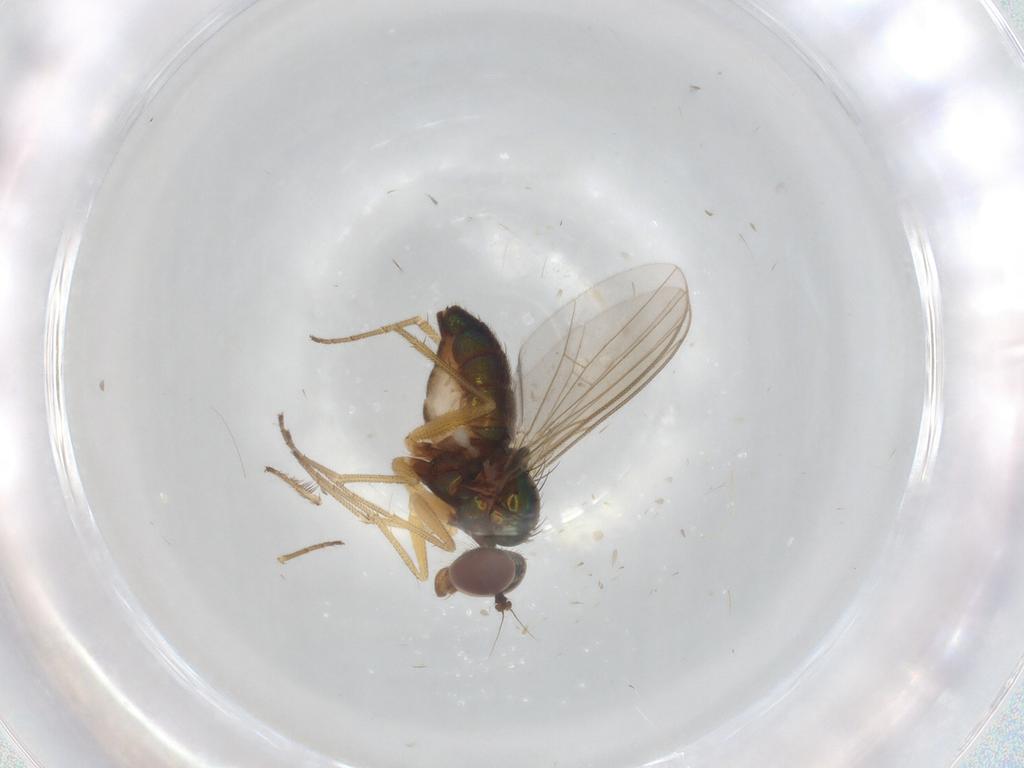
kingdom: Animalia
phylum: Arthropoda
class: Insecta
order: Diptera
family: Dolichopodidae
